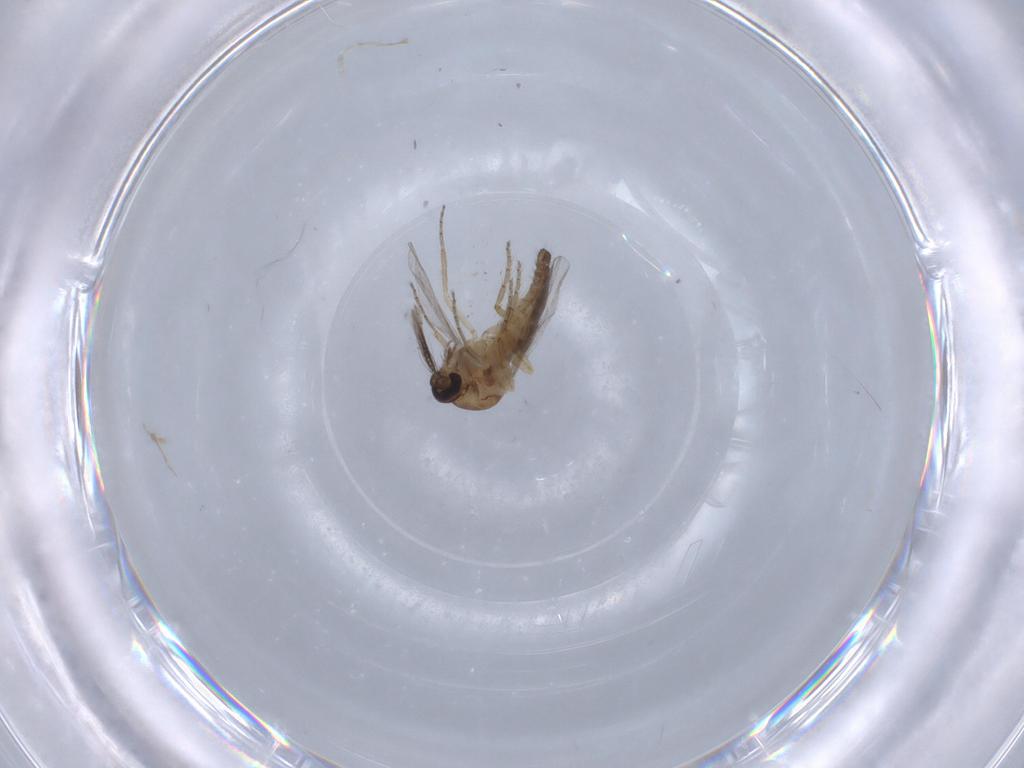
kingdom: Animalia
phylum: Arthropoda
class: Insecta
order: Diptera
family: Ceratopogonidae
